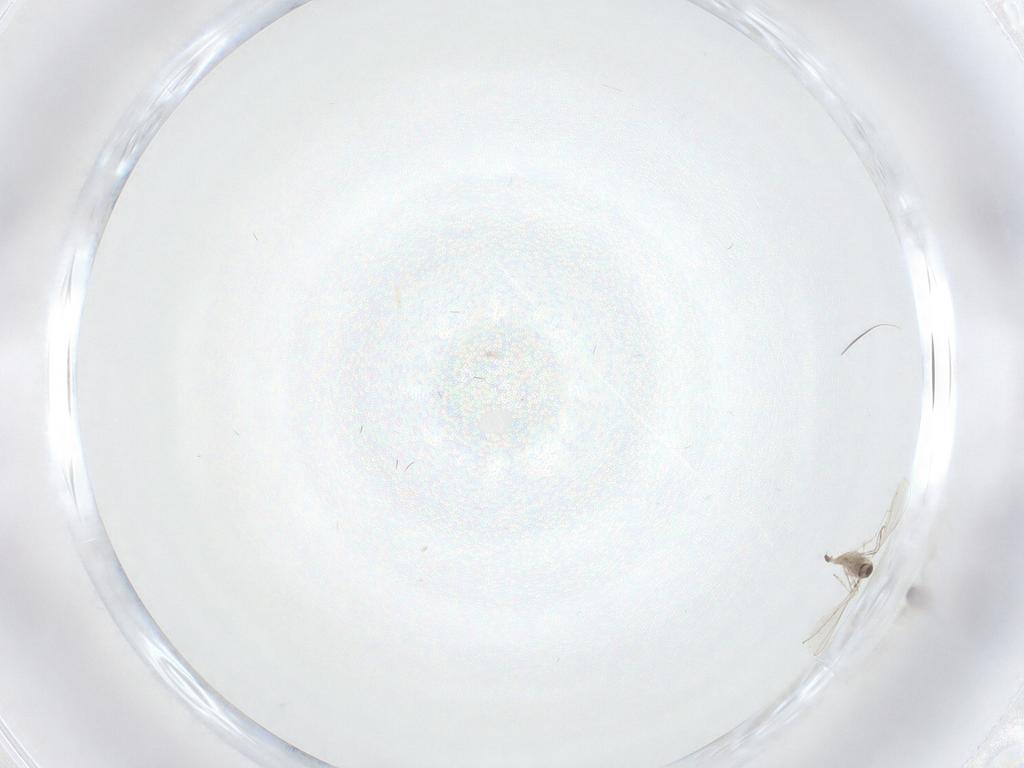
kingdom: Animalia
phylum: Arthropoda
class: Insecta
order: Diptera
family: Cecidomyiidae
